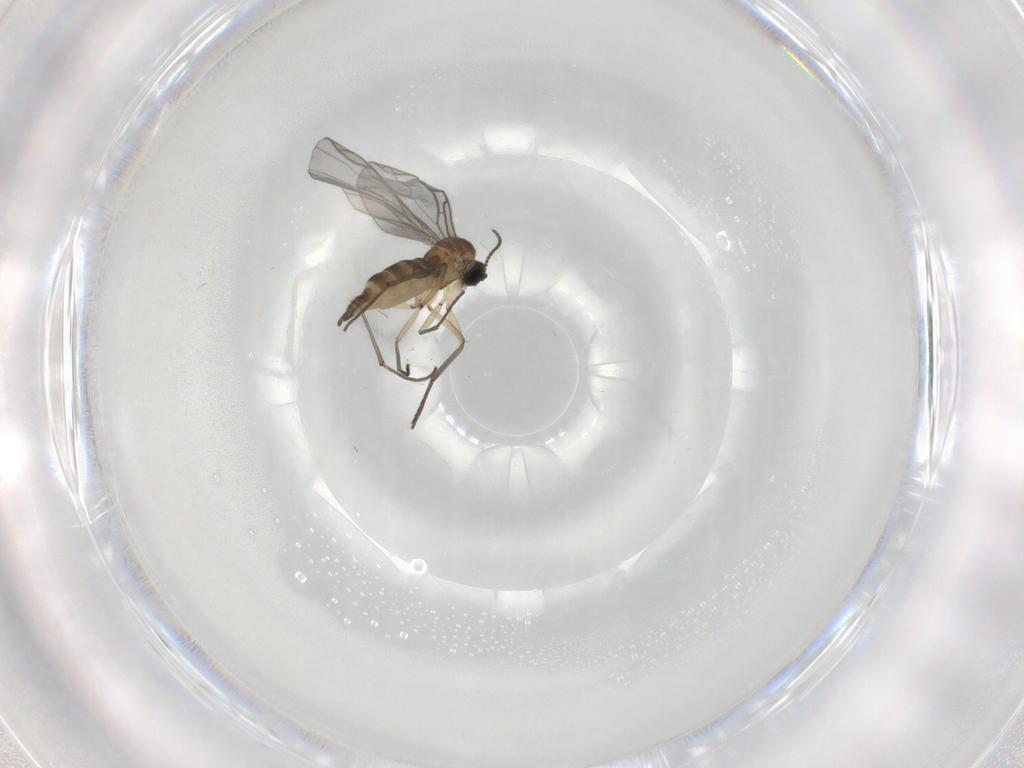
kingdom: Animalia
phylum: Arthropoda
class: Insecta
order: Diptera
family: Sciaridae
